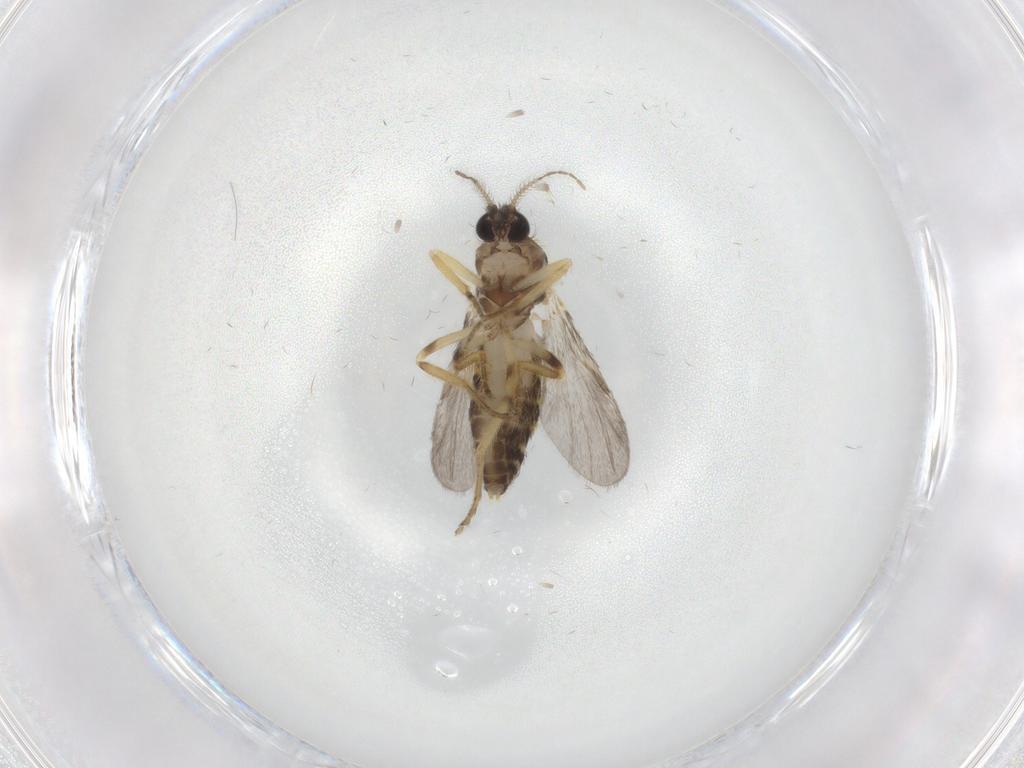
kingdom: Animalia
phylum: Arthropoda
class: Insecta
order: Diptera
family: Ceratopogonidae
